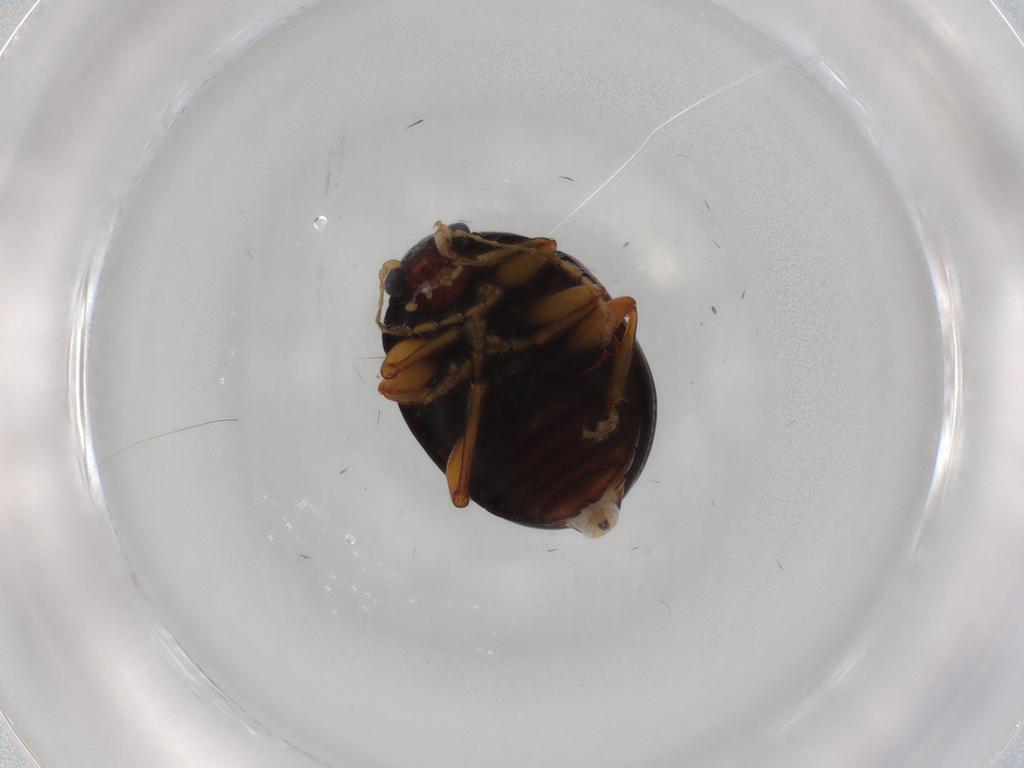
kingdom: Animalia
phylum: Arthropoda
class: Insecta
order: Coleoptera
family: Chrysomelidae
